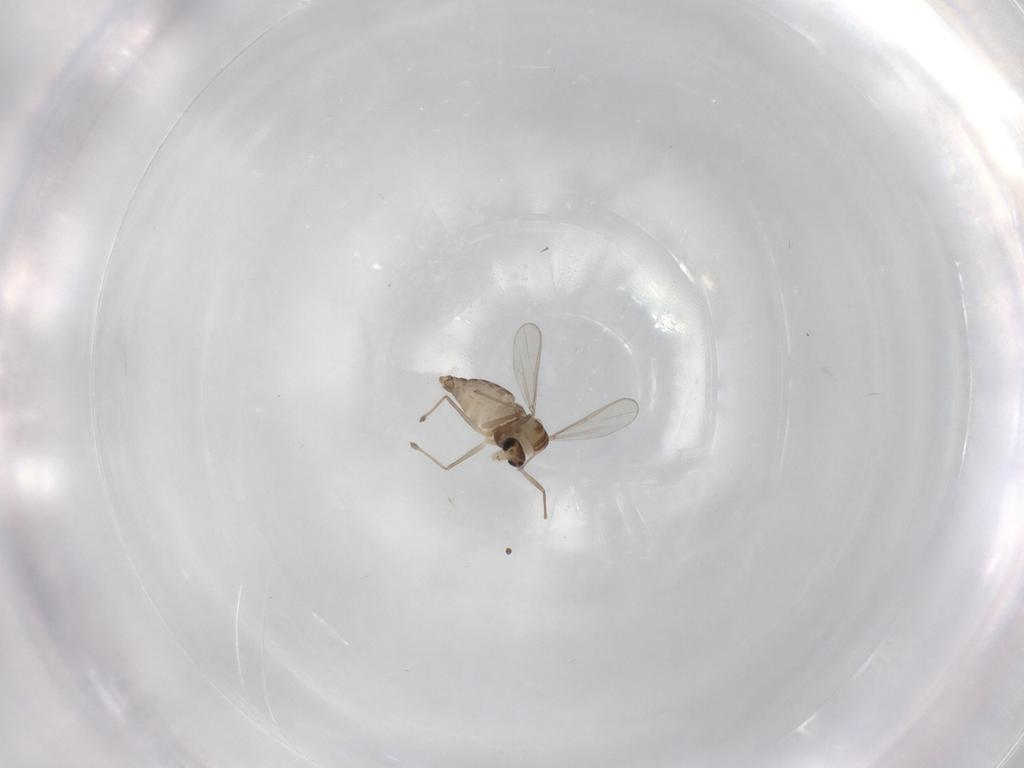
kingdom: Animalia
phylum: Arthropoda
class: Insecta
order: Diptera
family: Chironomidae
